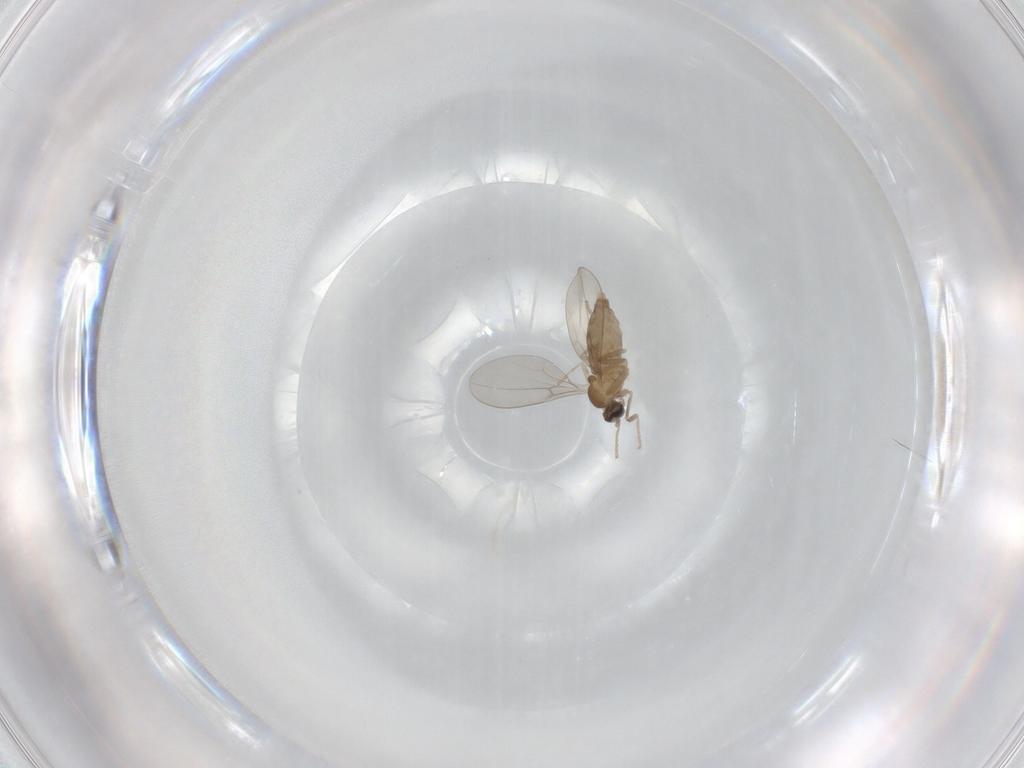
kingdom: Animalia
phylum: Arthropoda
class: Insecta
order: Diptera
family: Cecidomyiidae
